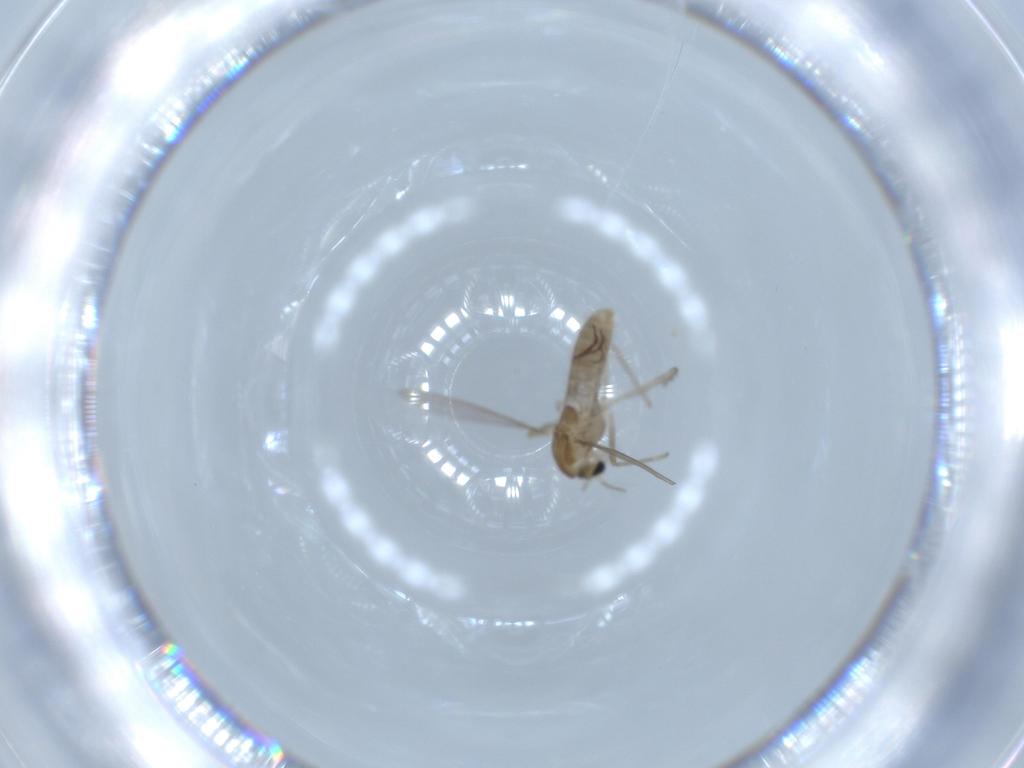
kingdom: Animalia
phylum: Arthropoda
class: Insecta
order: Diptera
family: Chironomidae
